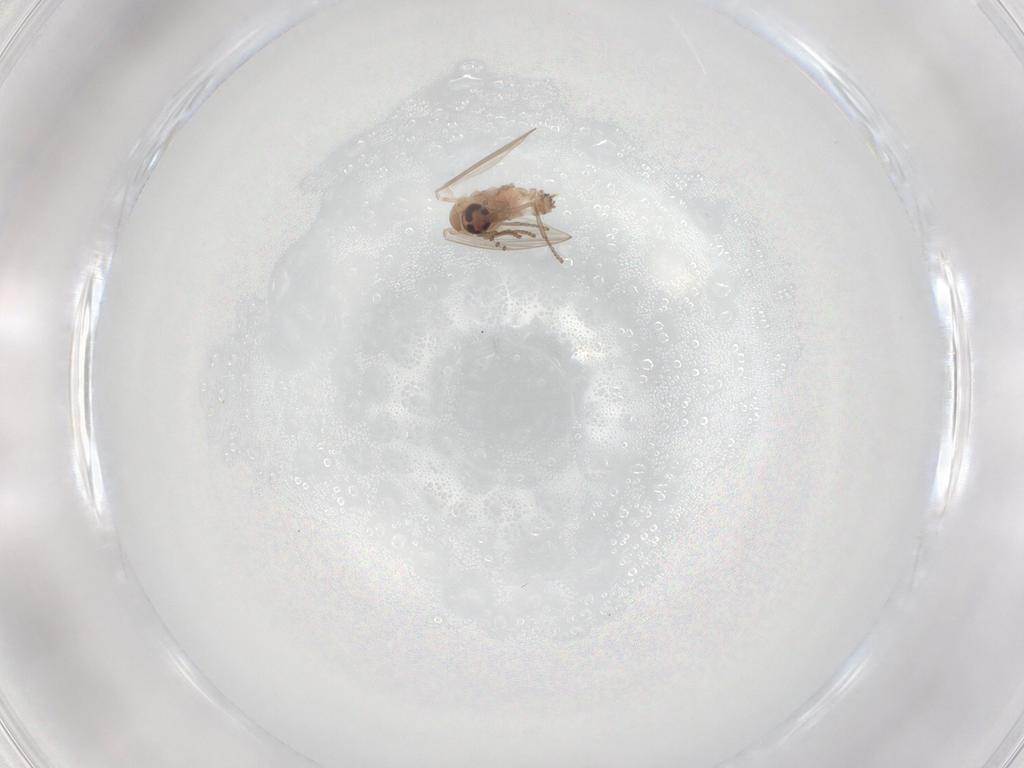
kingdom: Animalia
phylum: Arthropoda
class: Insecta
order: Diptera
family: Psychodidae
